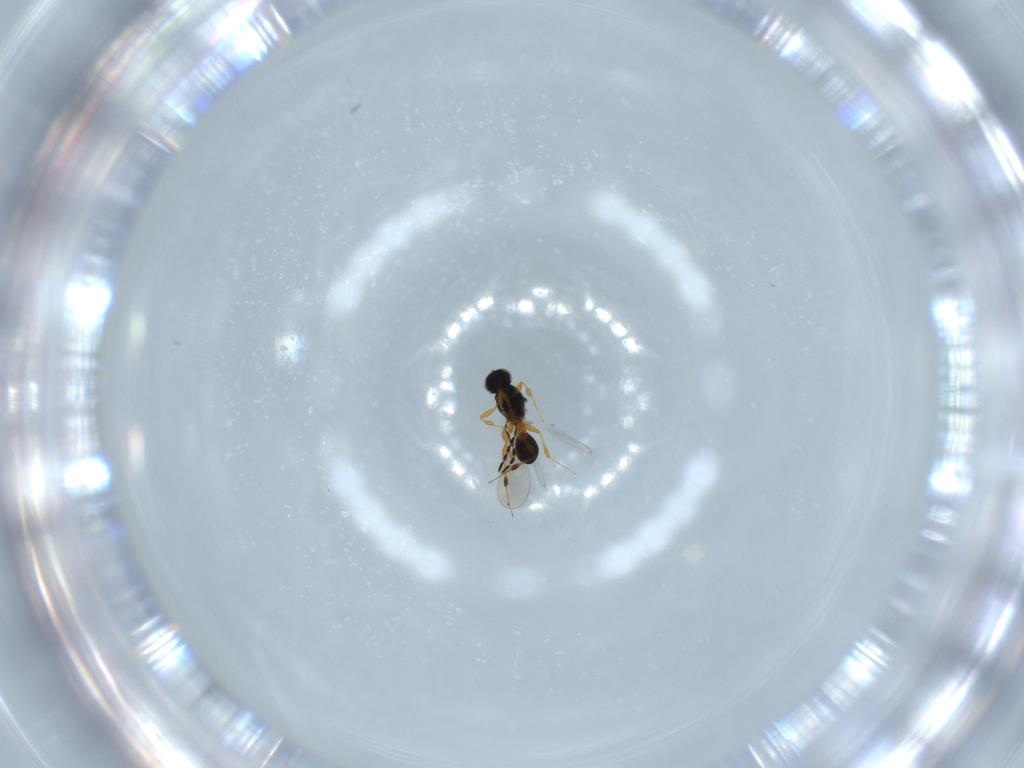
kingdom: Animalia
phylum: Arthropoda
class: Insecta
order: Hymenoptera
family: Platygastridae
